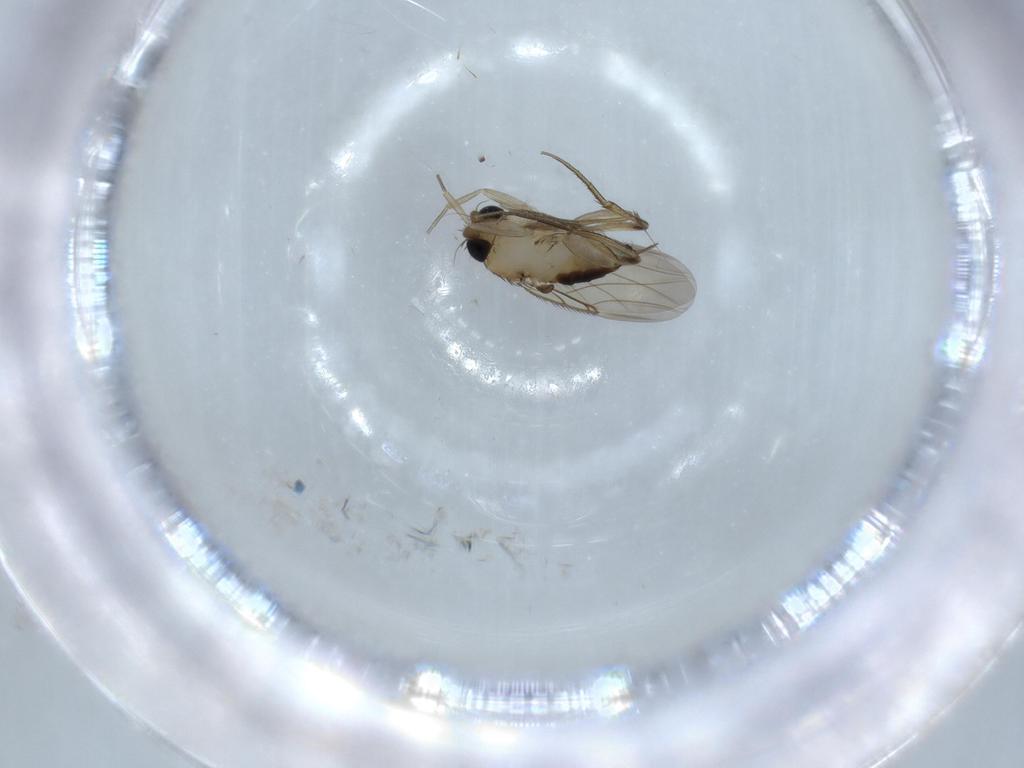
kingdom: Animalia
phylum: Arthropoda
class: Insecta
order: Diptera
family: Phoridae
